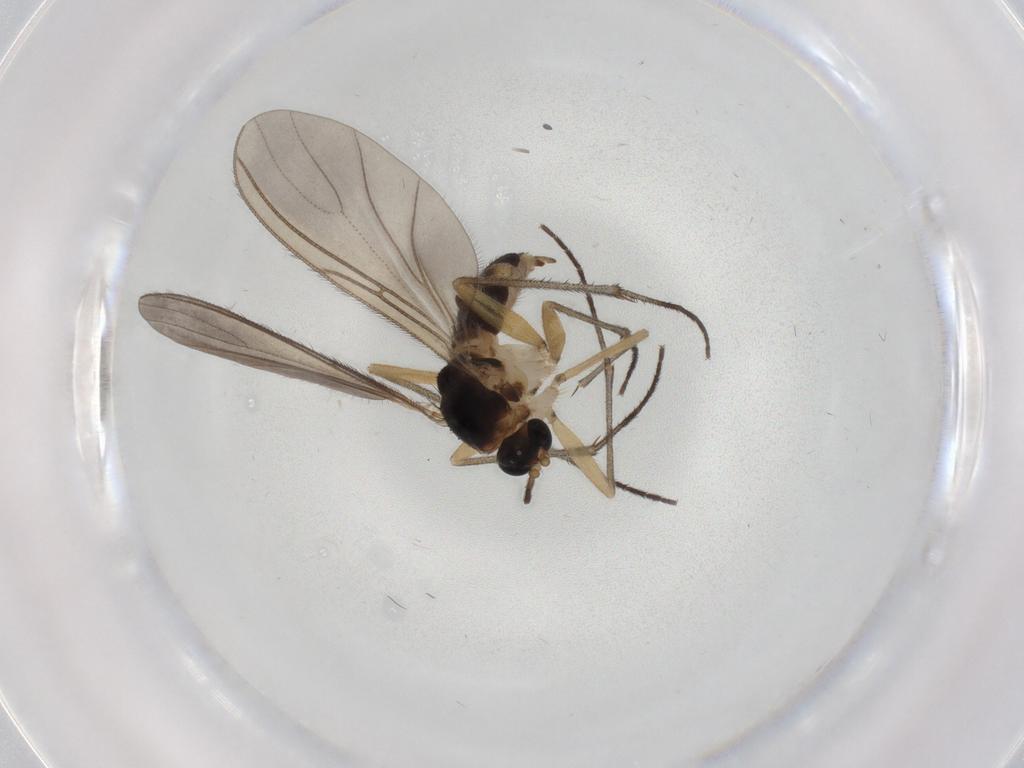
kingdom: Animalia
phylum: Arthropoda
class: Insecta
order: Diptera
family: Sciaridae
